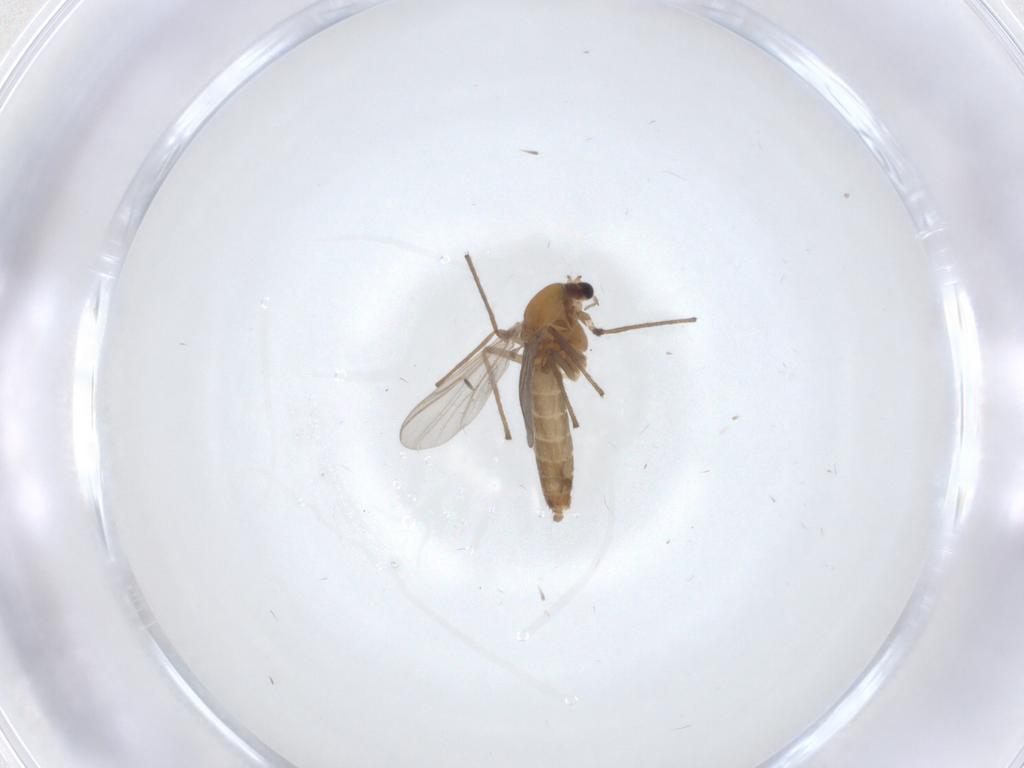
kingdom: Animalia
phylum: Arthropoda
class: Insecta
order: Diptera
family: Chironomidae
